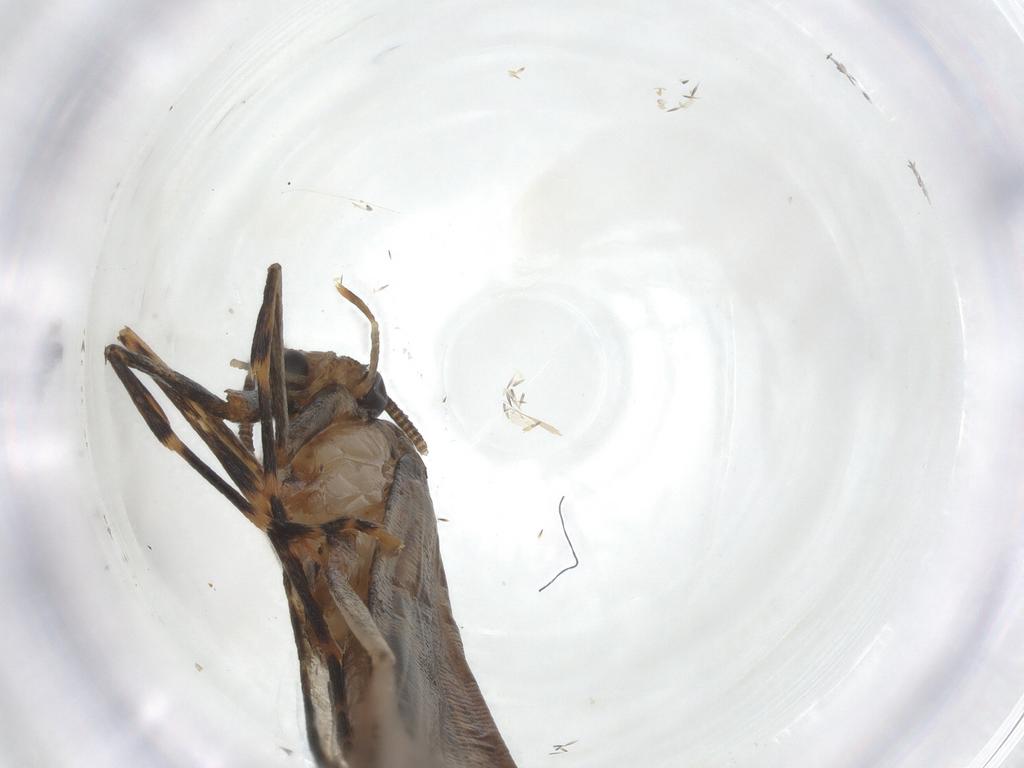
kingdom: Animalia
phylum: Arthropoda
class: Insecta
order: Lepidoptera
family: Tineidae
